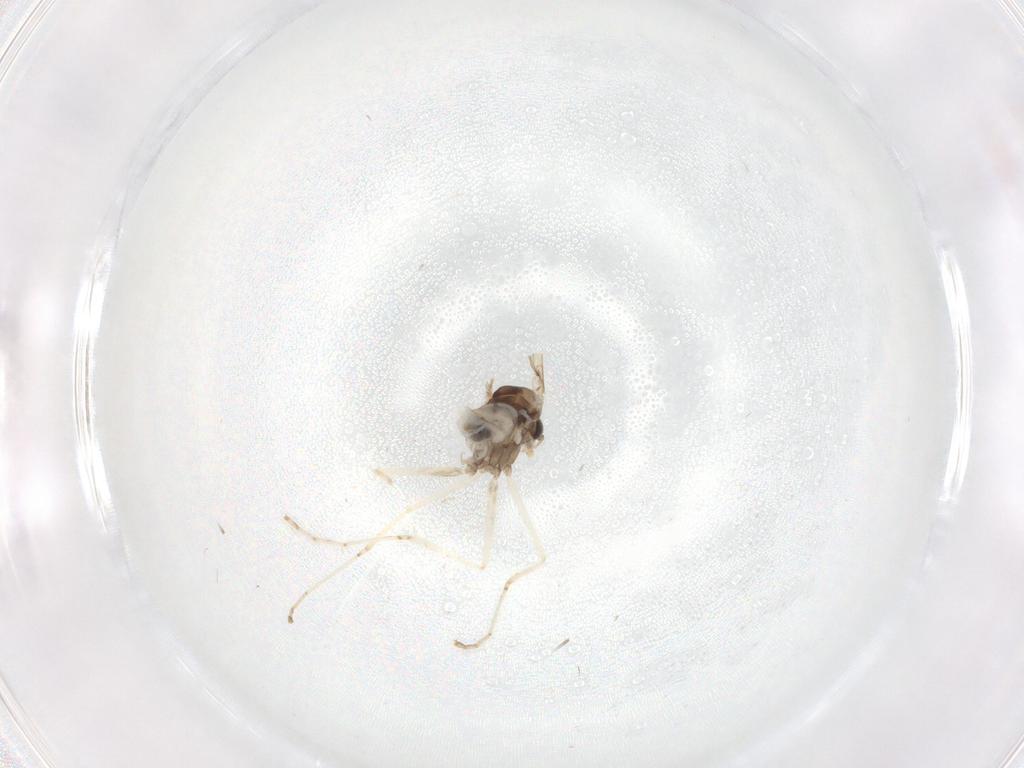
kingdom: Animalia
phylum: Arthropoda
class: Insecta
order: Diptera
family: Cecidomyiidae
